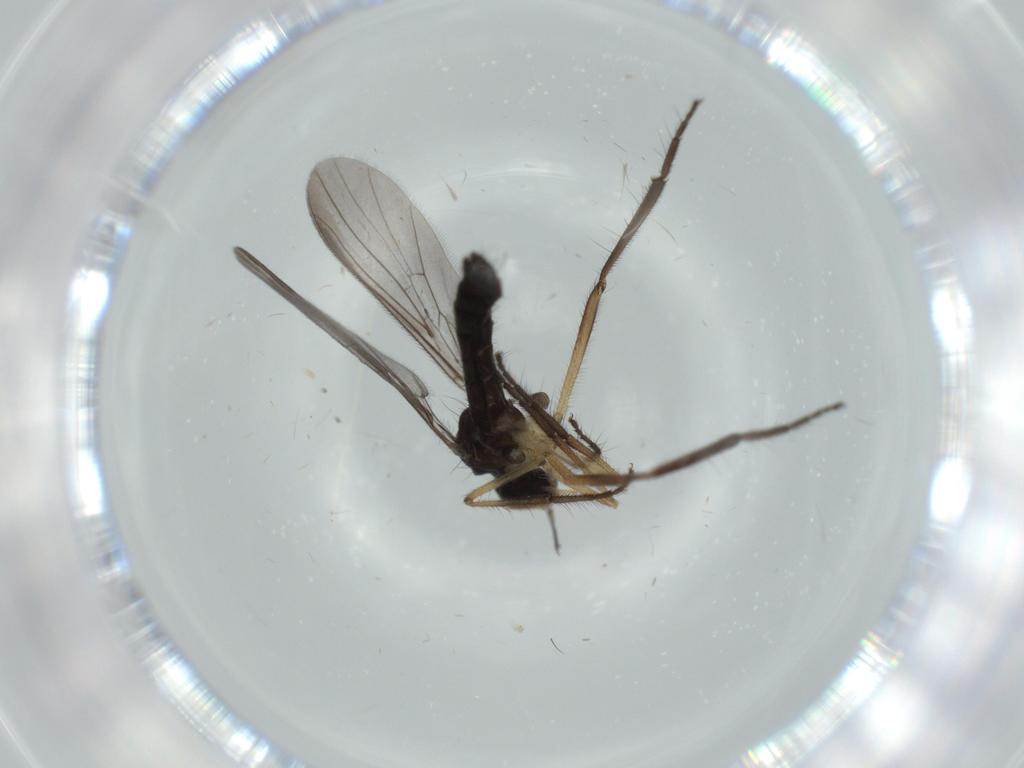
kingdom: Animalia
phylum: Arthropoda
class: Insecta
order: Diptera
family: Empididae
